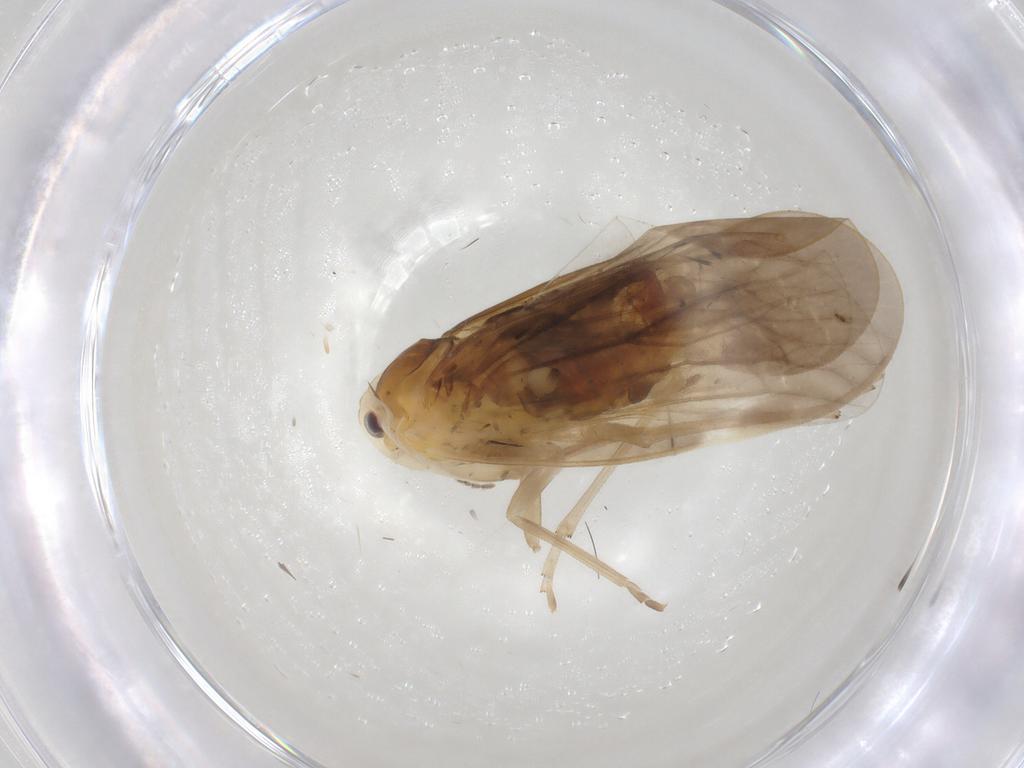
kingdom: Animalia
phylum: Arthropoda
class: Insecta
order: Hemiptera
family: Derbidae
